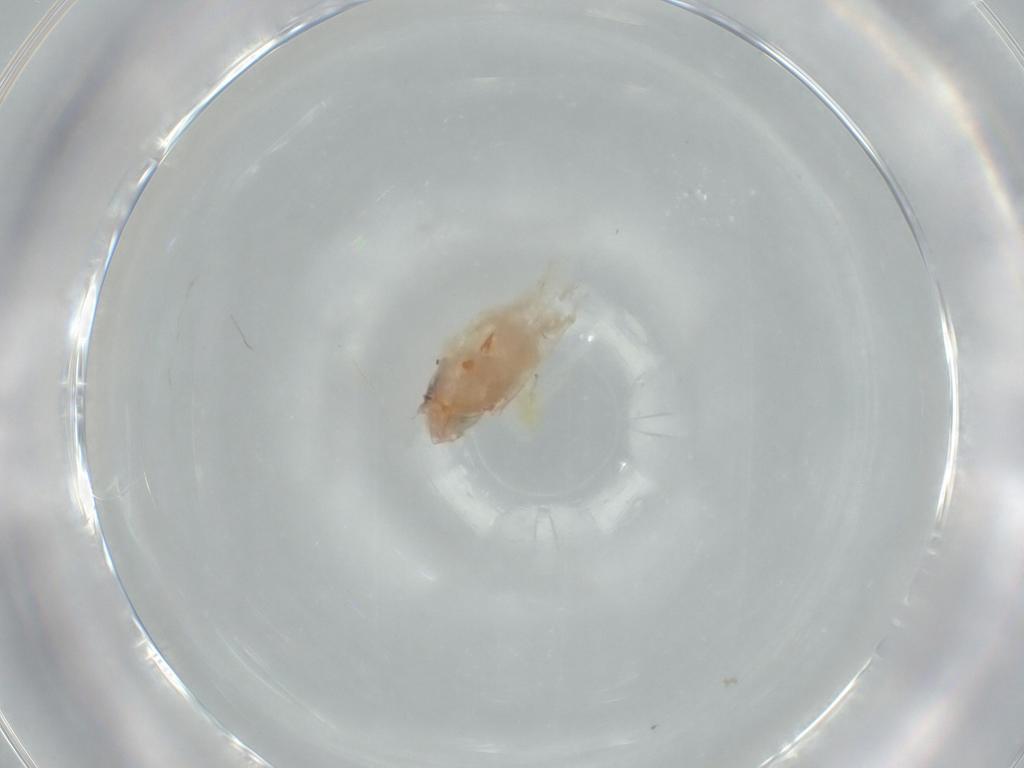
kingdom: Animalia
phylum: Arthropoda
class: Insecta
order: Hemiptera
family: Cicadellidae
